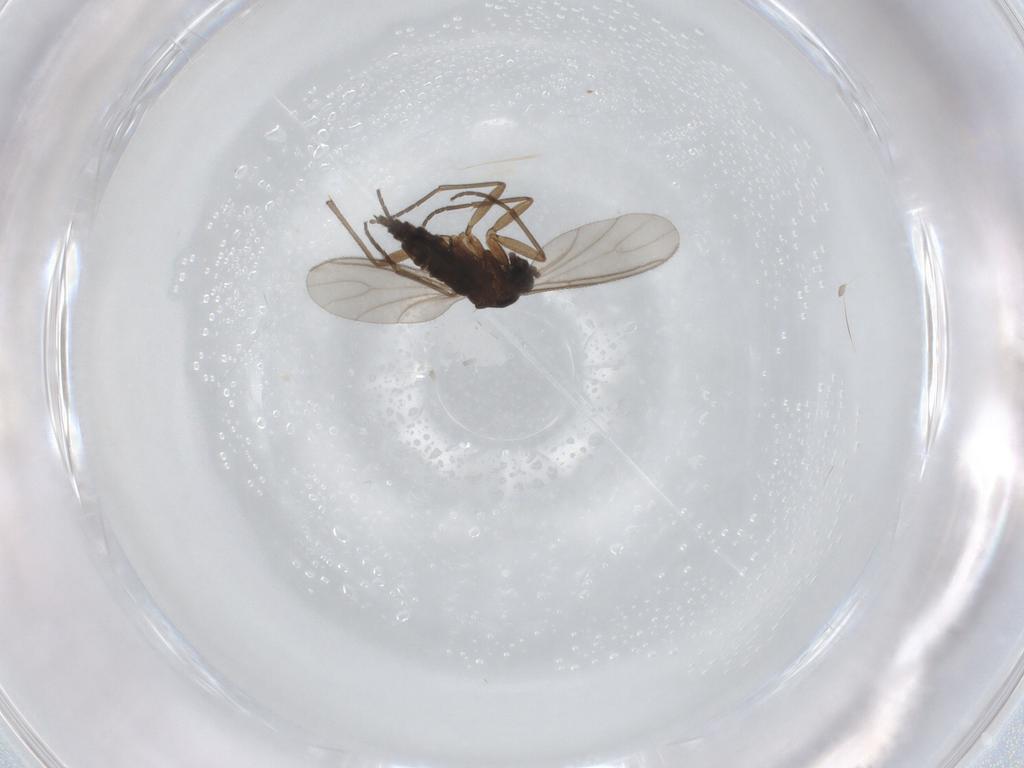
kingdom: Animalia
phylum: Arthropoda
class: Insecta
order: Diptera
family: Sciaridae
